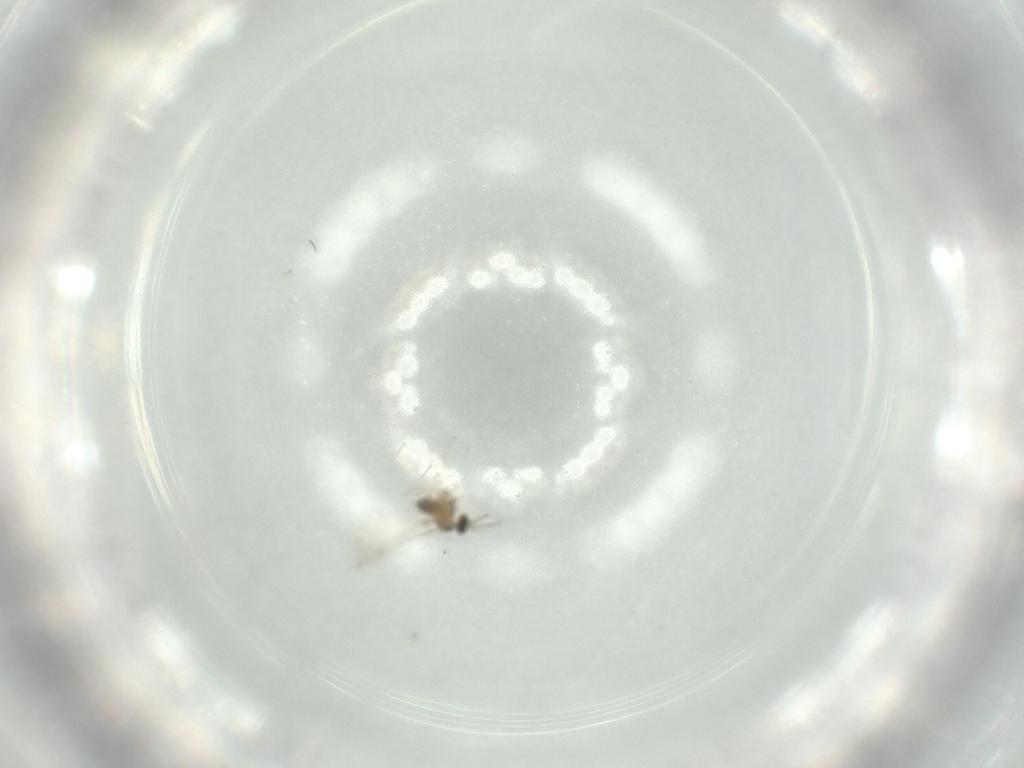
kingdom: Animalia
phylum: Arthropoda
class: Insecta
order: Diptera
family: Cecidomyiidae
